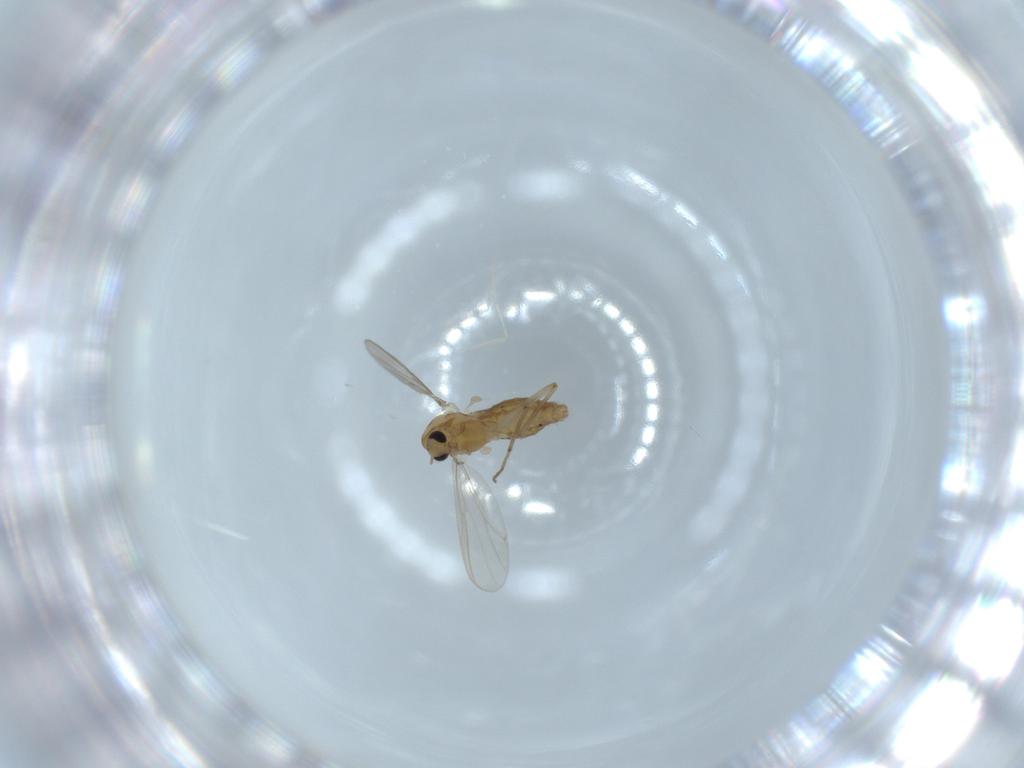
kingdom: Animalia
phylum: Arthropoda
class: Insecta
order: Diptera
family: Chironomidae
